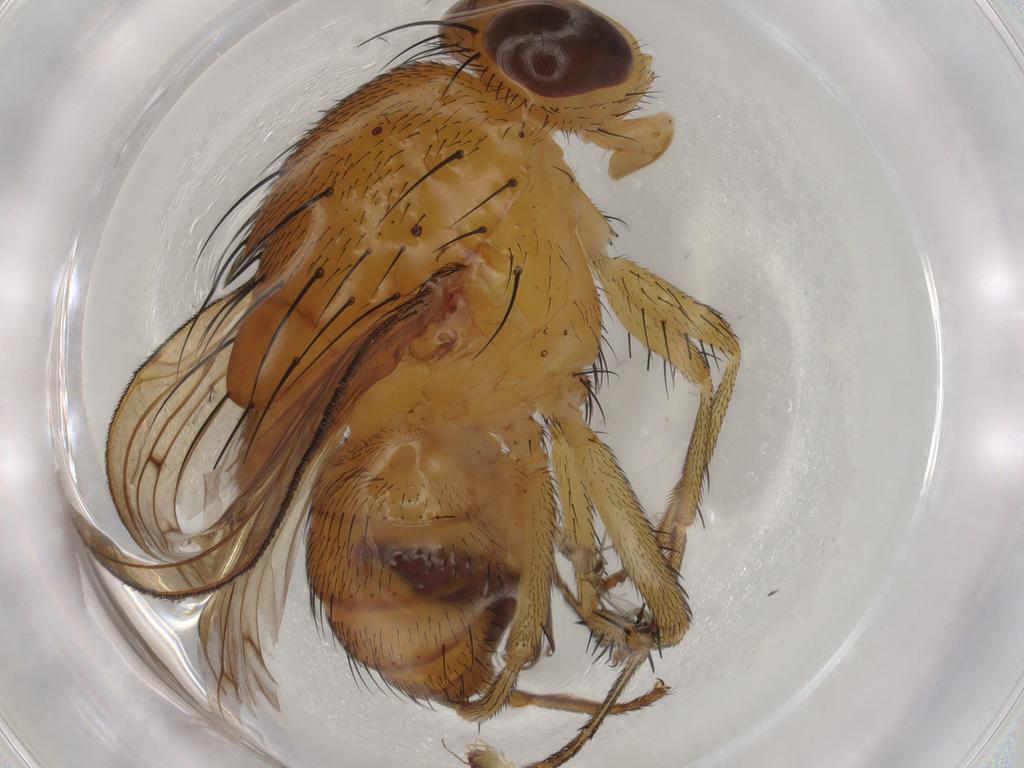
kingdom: Animalia
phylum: Arthropoda
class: Insecta
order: Diptera
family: Lauxaniidae
